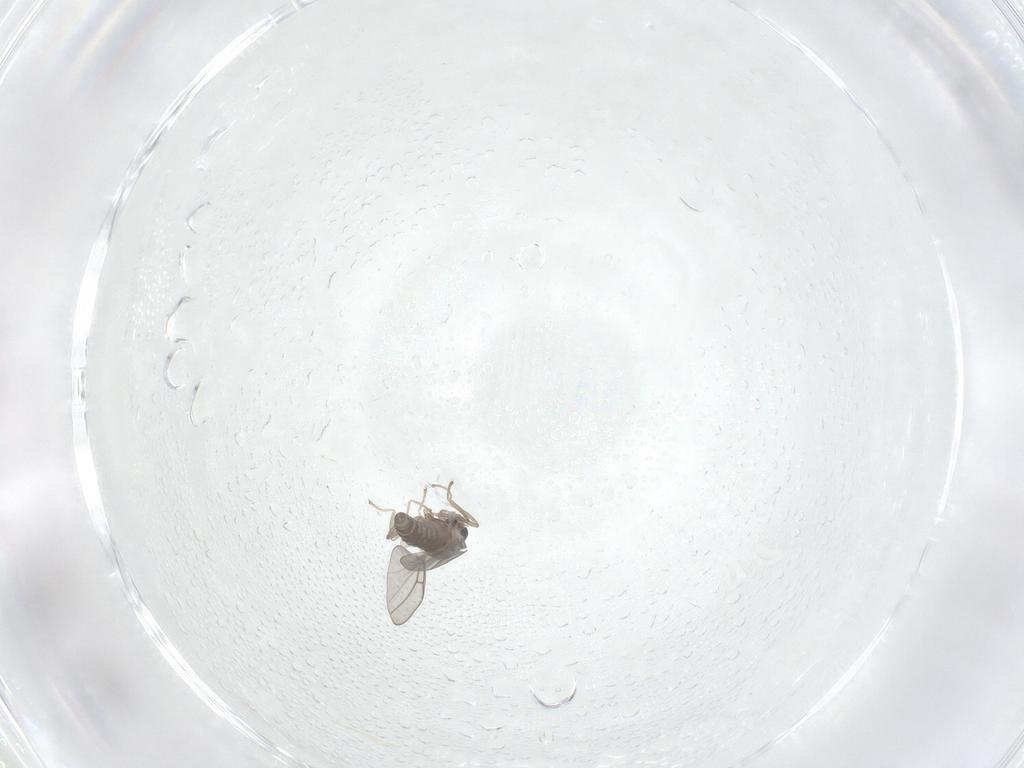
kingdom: Animalia
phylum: Arthropoda
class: Insecta
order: Diptera
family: Cecidomyiidae
